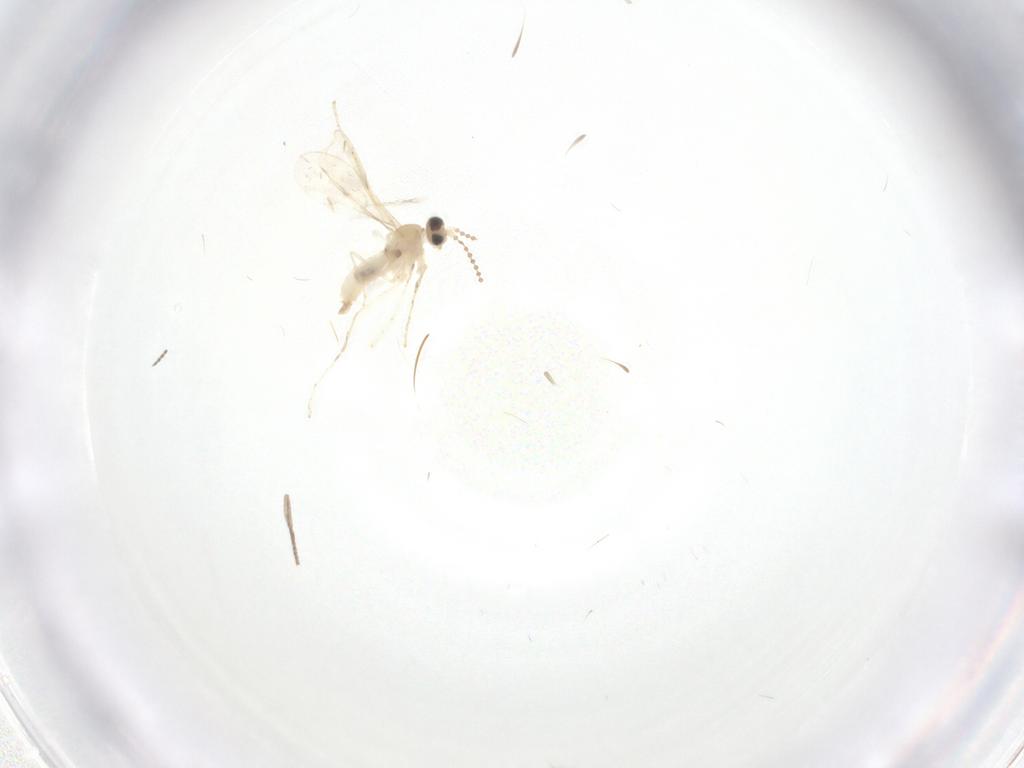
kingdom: Animalia
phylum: Arthropoda
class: Insecta
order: Diptera
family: Cecidomyiidae
